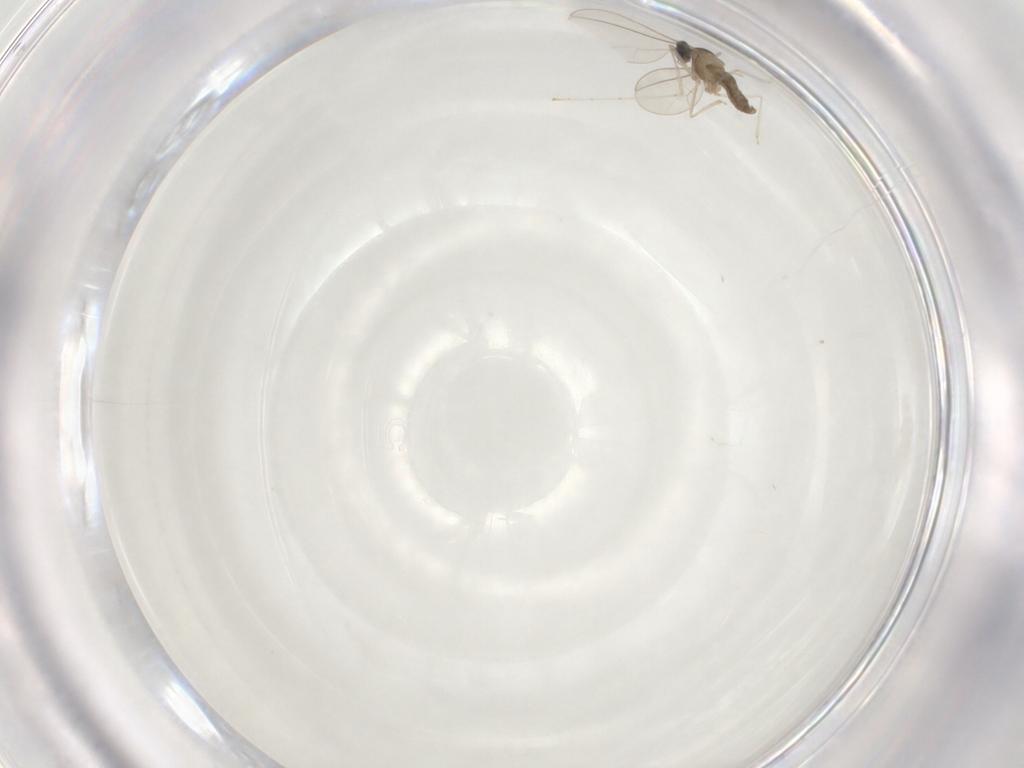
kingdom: Animalia
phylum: Arthropoda
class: Insecta
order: Diptera
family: Cecidomyiidae
